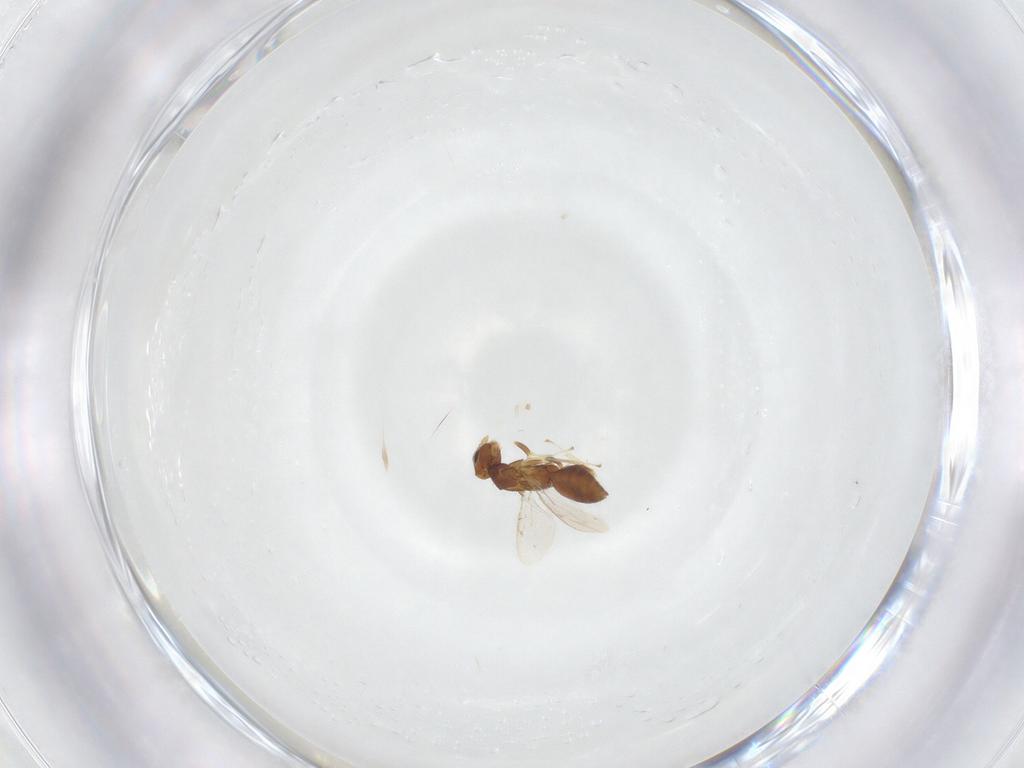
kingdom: Animalia
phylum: Arthropoda
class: Insecta
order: Hymenoptera
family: Eulophidae
